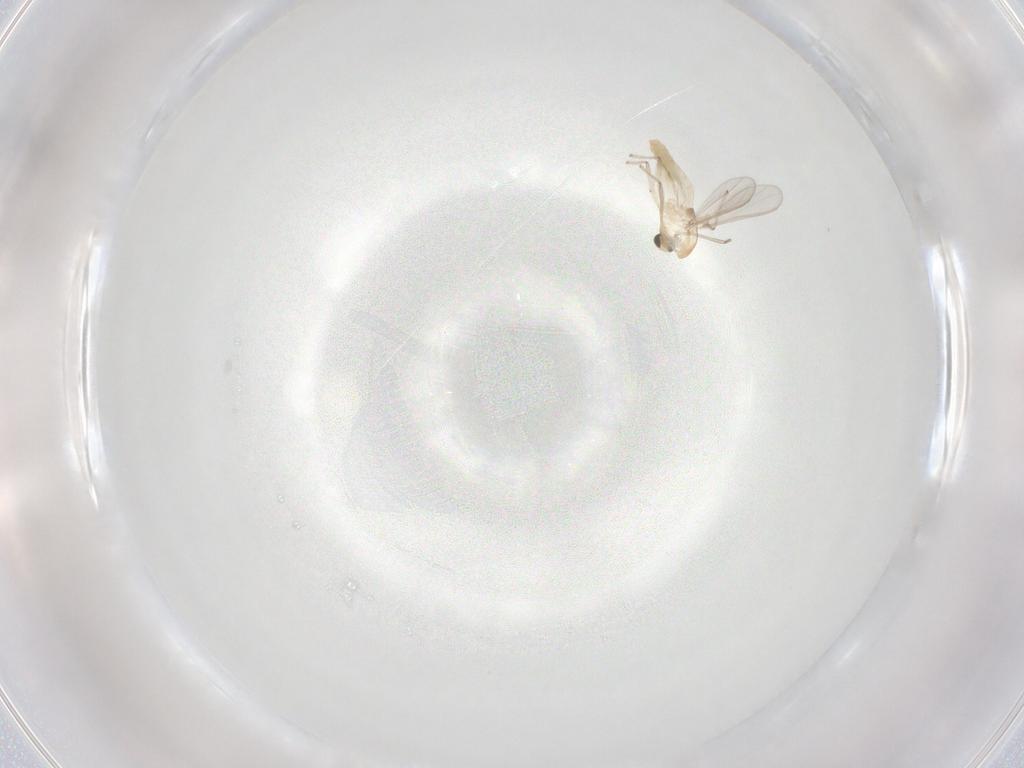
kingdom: Animalia
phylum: Arthropoda
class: Insecta
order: Diptera
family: Chironomidae
